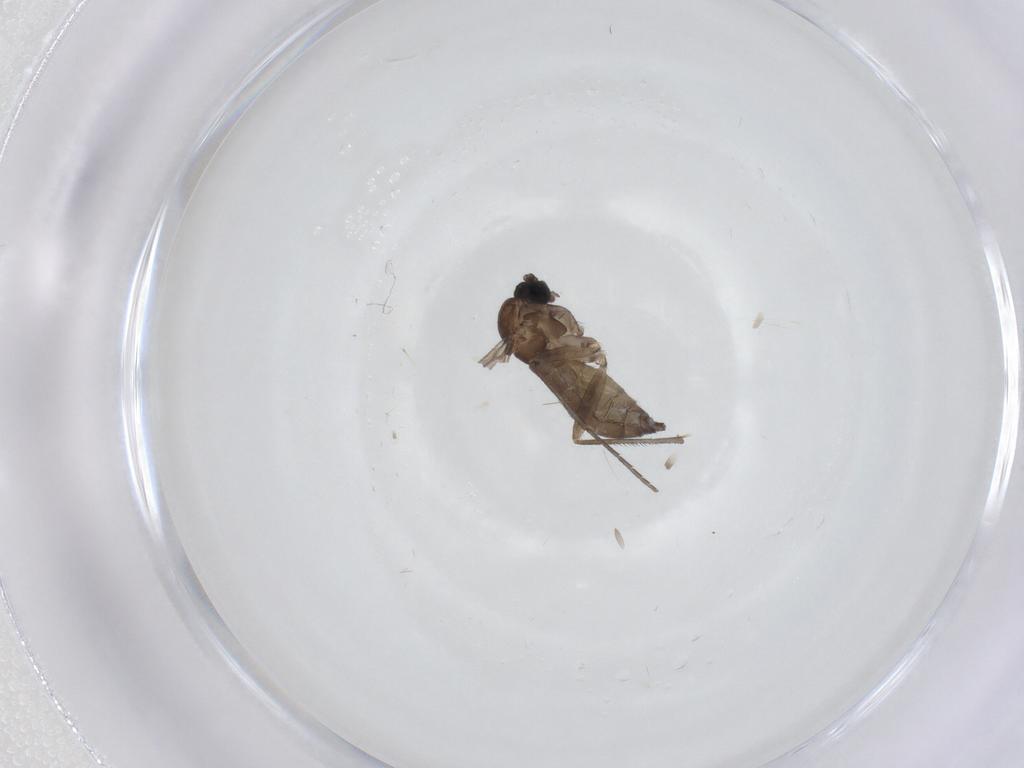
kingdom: Animalia
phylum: Arthropoda
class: Insecta
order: Diptera
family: Sciaridae
